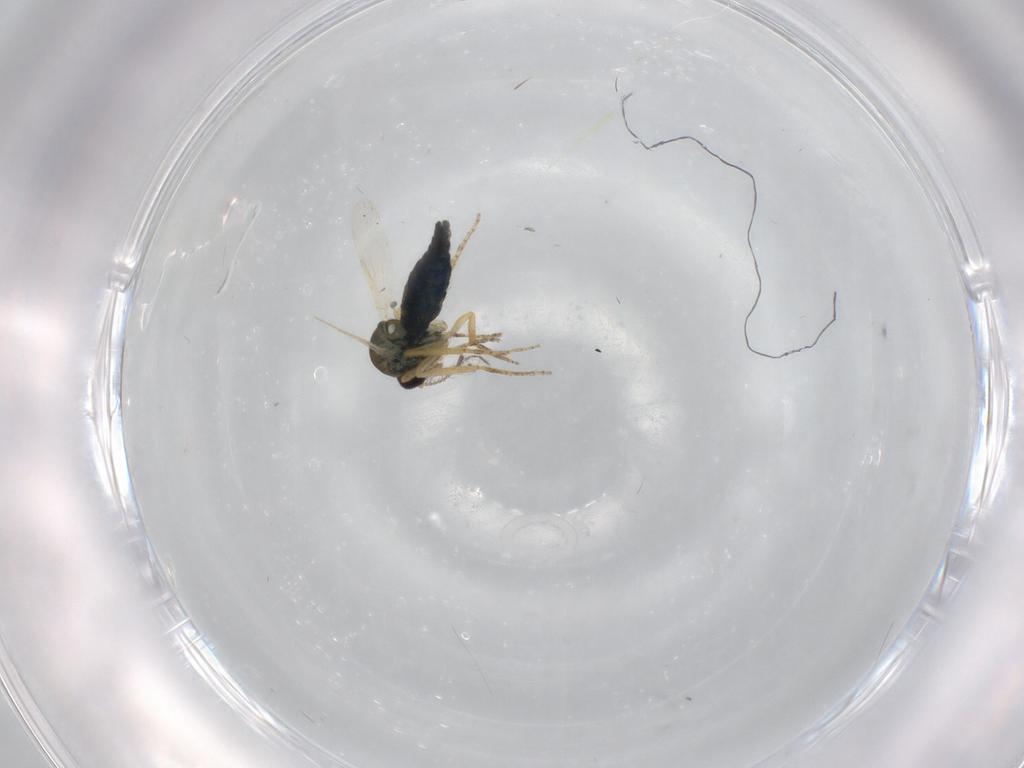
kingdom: Animalia
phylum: Arthropoda
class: Insecta
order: Diptera
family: Ceratopogonidae
